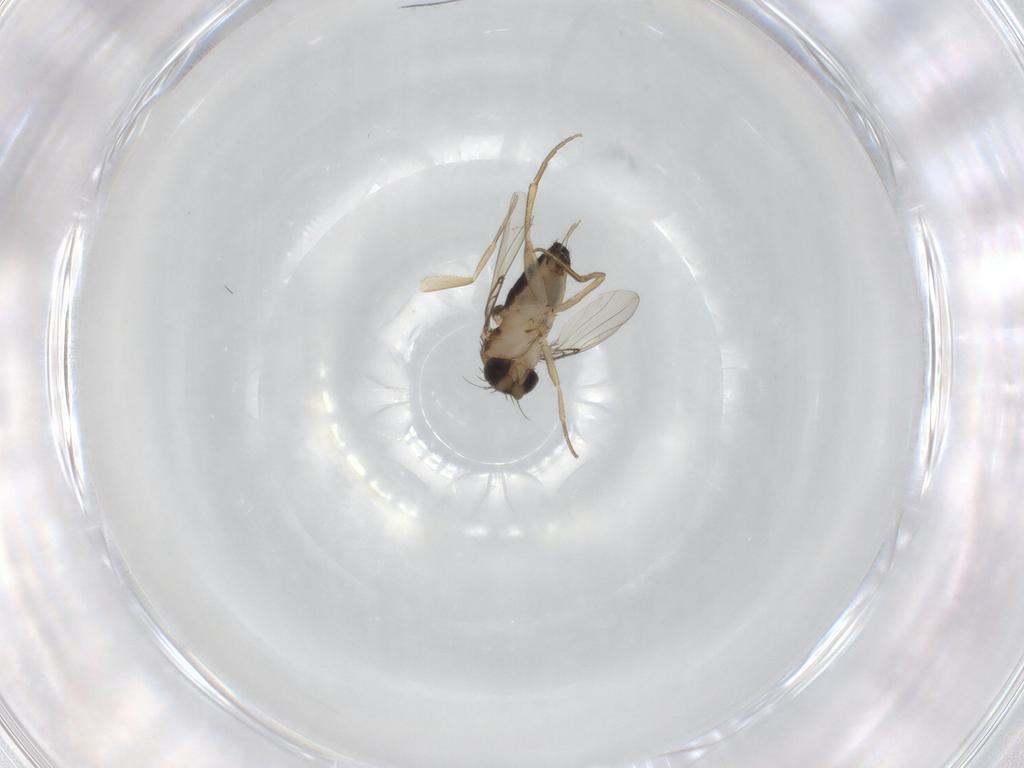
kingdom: Animalia
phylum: Arthropoda
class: Insecta
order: Diptera
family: Phoridae
